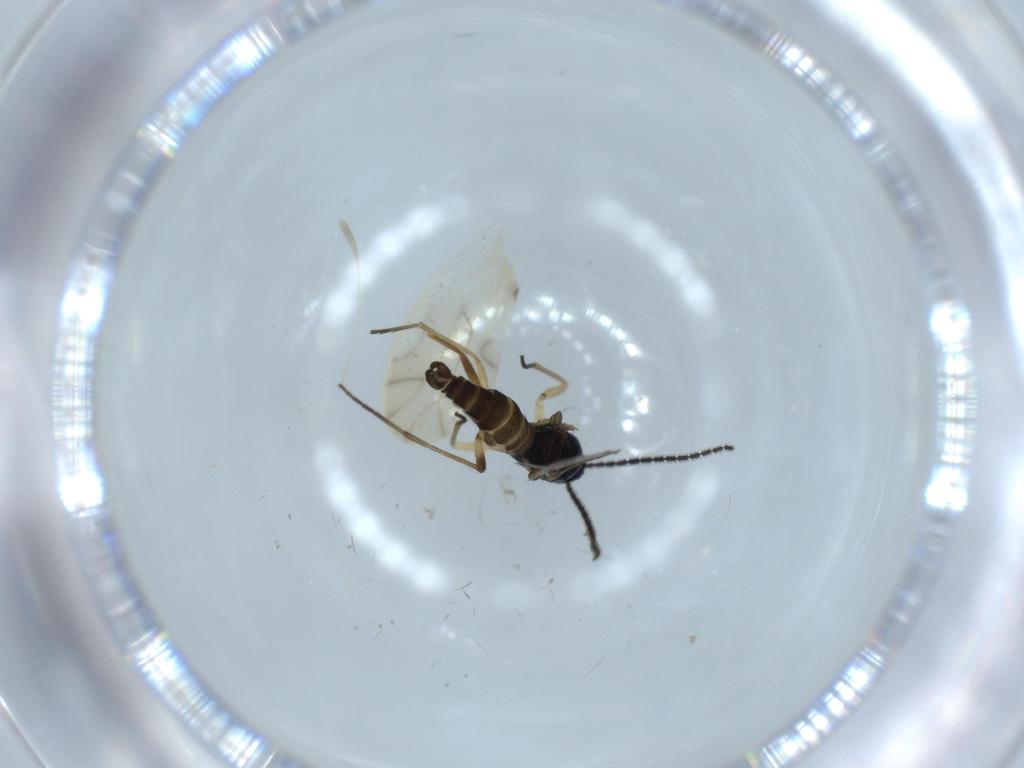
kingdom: Animalia
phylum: Arthropoda
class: Insecta
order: Diptera
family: Sciaridae
